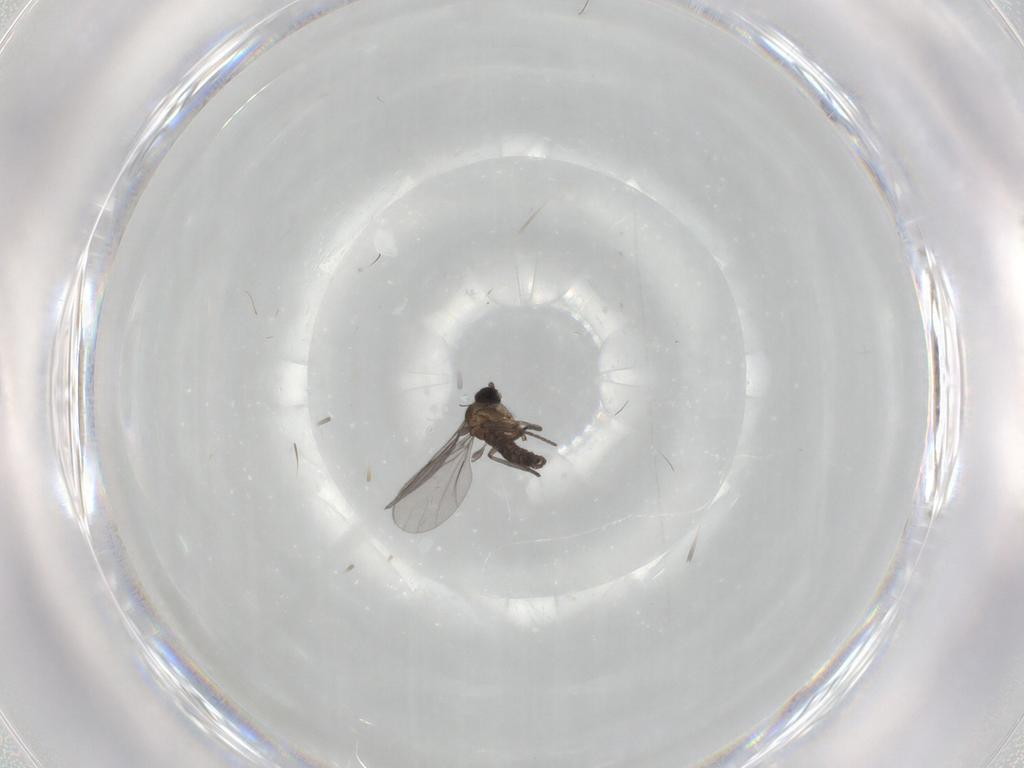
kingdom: Animalia
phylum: Arthropoda
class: Insecta
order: Diptera
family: Sciaridae
